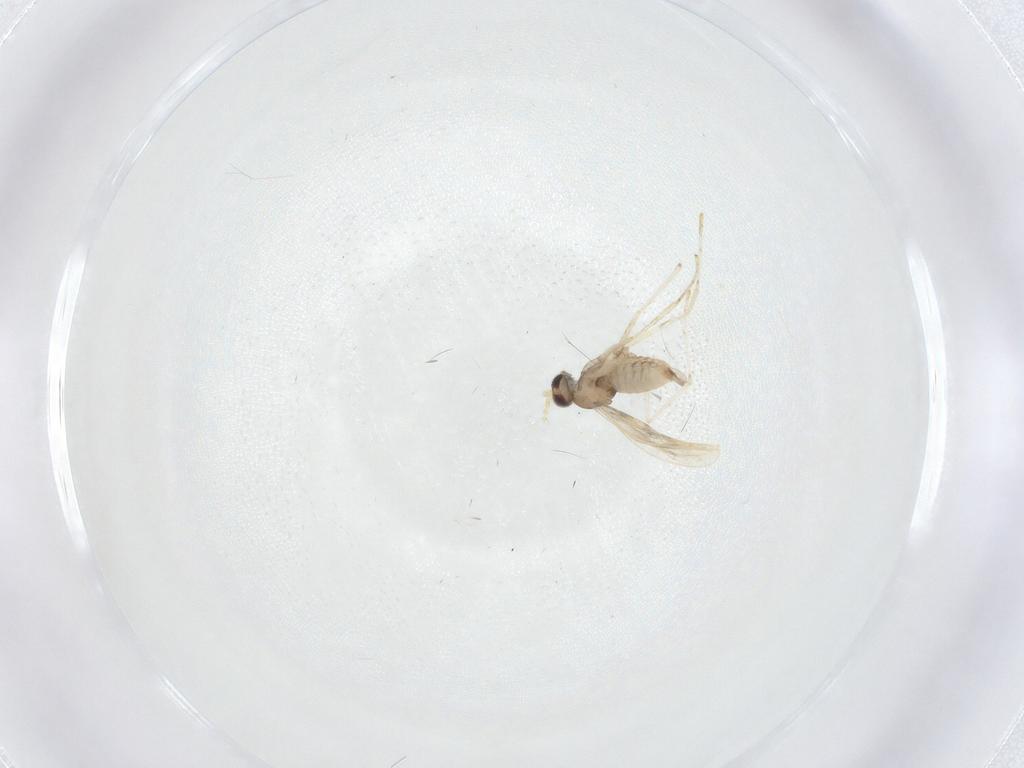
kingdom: Animalia
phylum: Arthropoda
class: Insecta
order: Diptera
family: Cecidomyiidae
